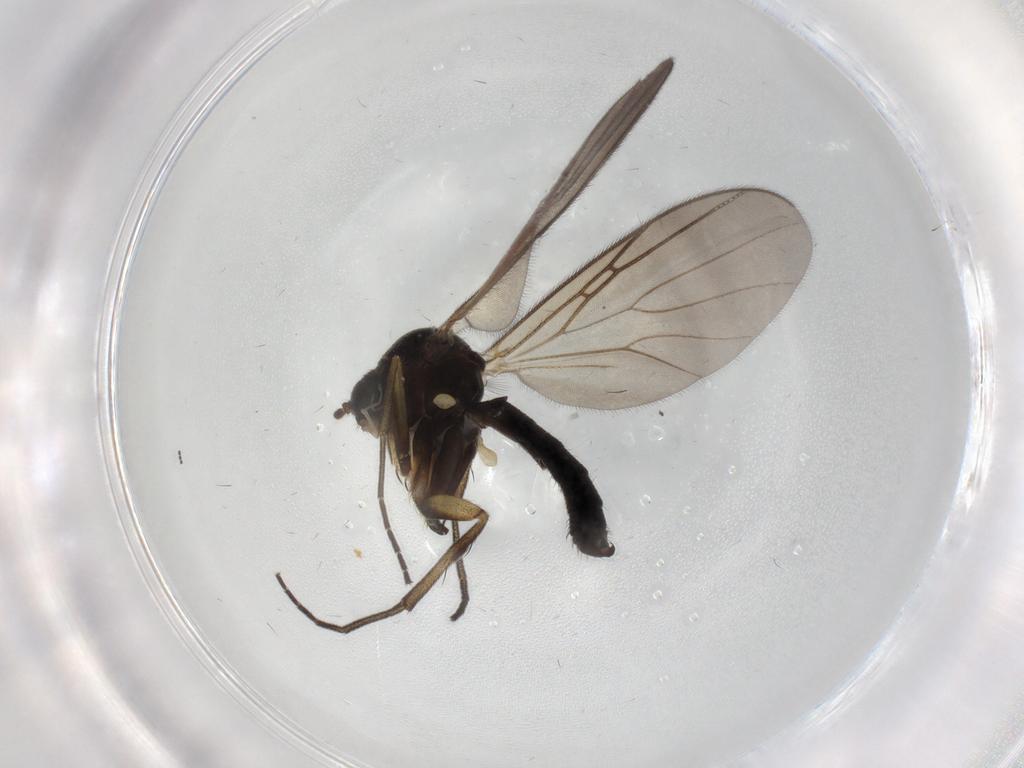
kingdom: Animalia
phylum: Arthropoda
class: Insecta
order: Diptera
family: Mycetophilidae
